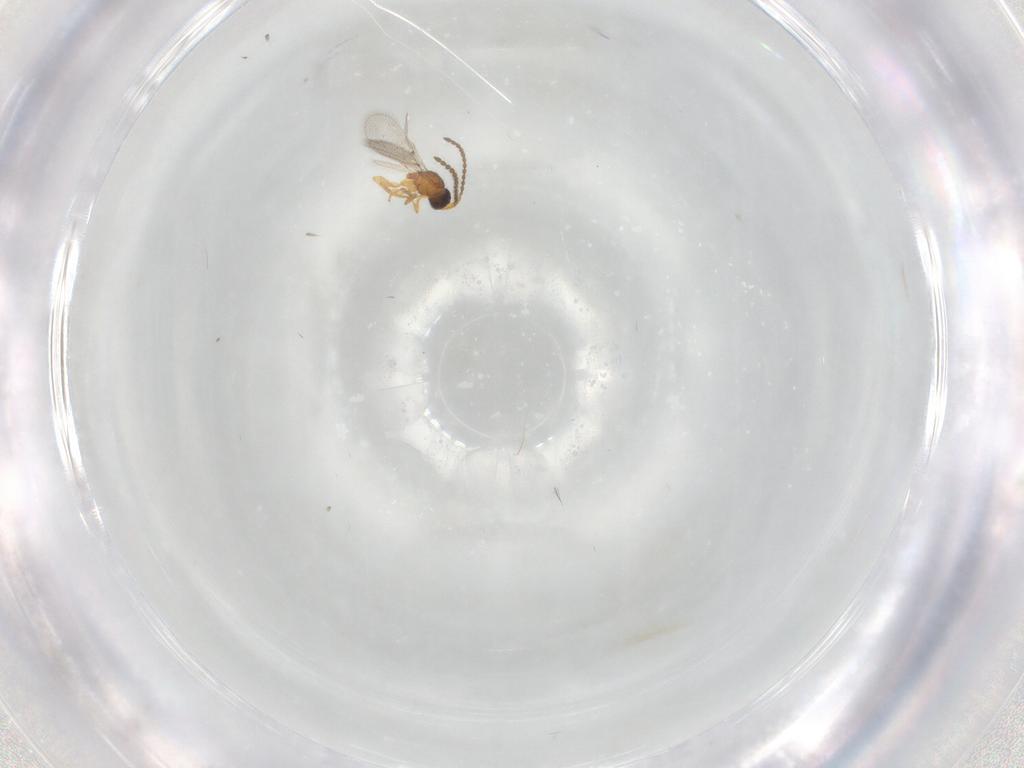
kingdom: Animalia
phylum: Arthropoda
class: Insecta
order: Hymenoptera
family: Diapriidae
